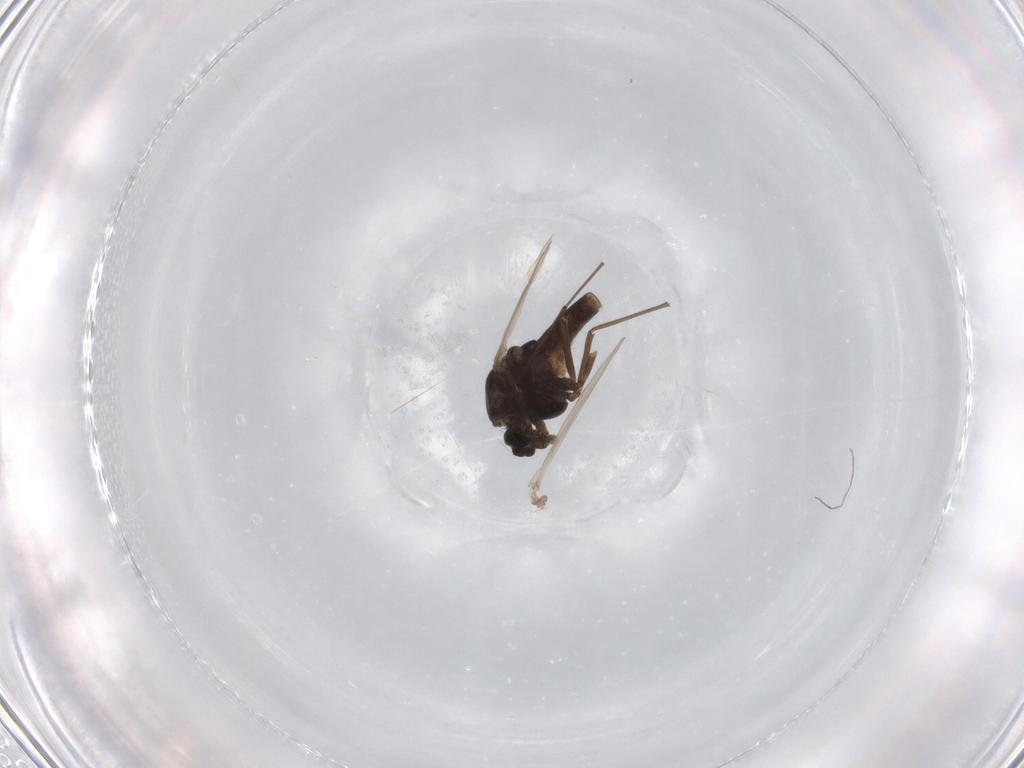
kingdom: Animalia
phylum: Arthropoda
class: Insecta
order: Diptera
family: Chironomidae
